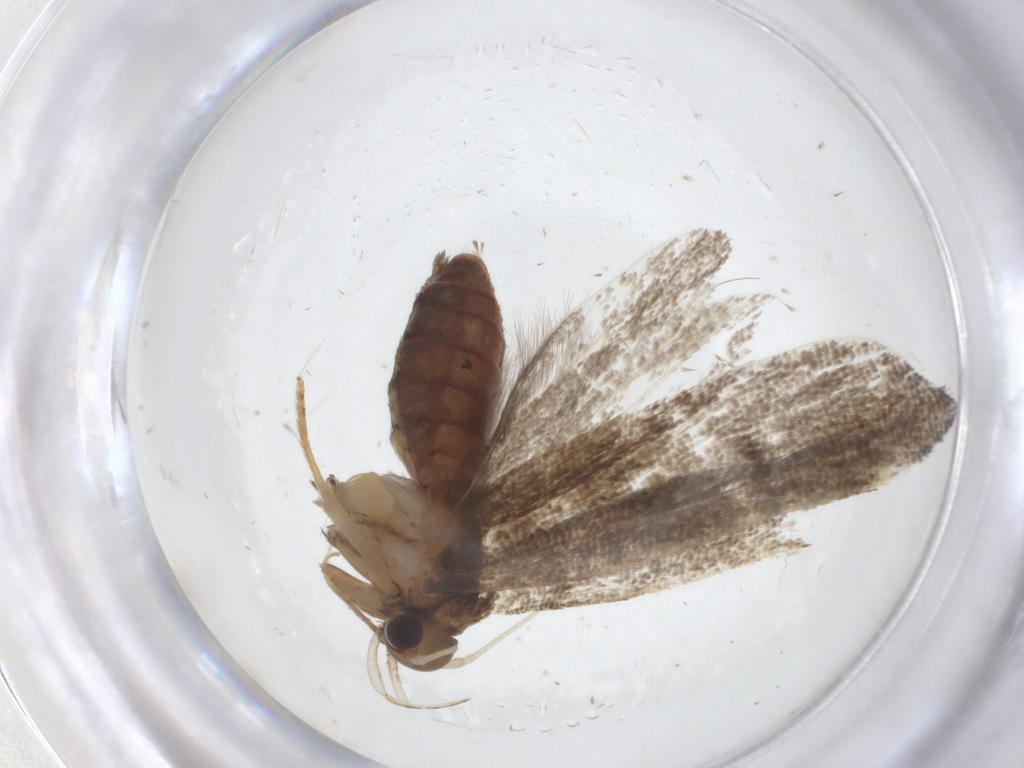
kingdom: Animalia
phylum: Arthropoda
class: Insecta
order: Lepidoptera
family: Lecithoceridae
